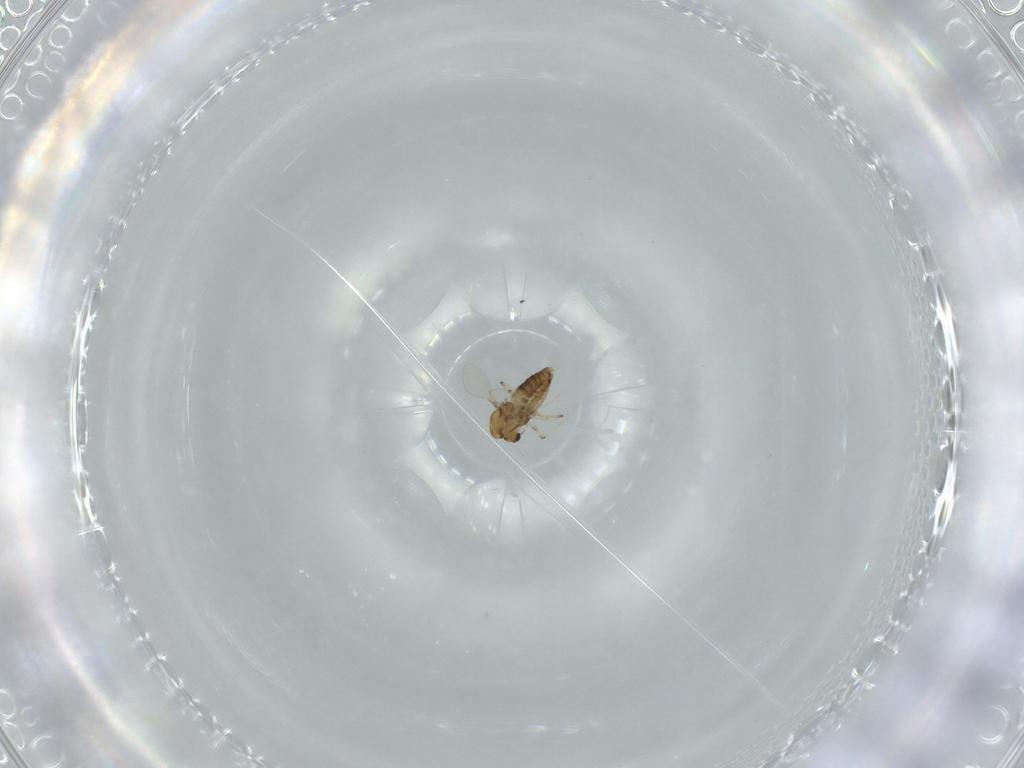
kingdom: Animalia
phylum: Arthropoda
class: Insecta
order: Diptera
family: Chironomidae
